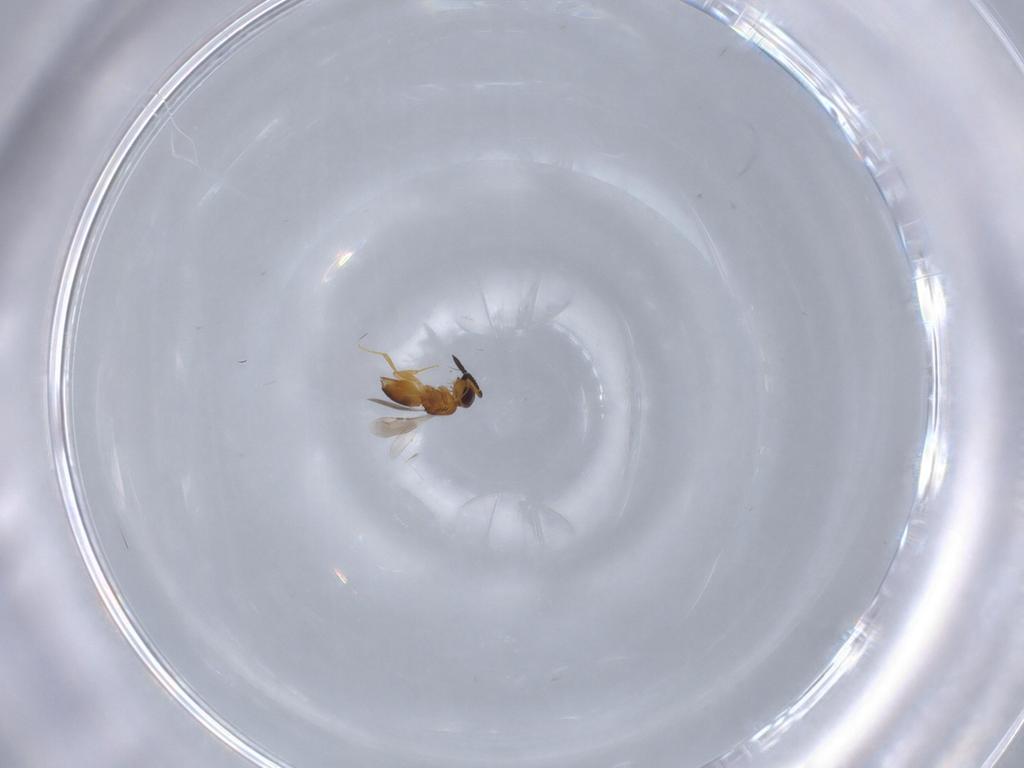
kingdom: Animalia
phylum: Arthropoda
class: Insecta
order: Hymenoptera
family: Ceraphronidae
